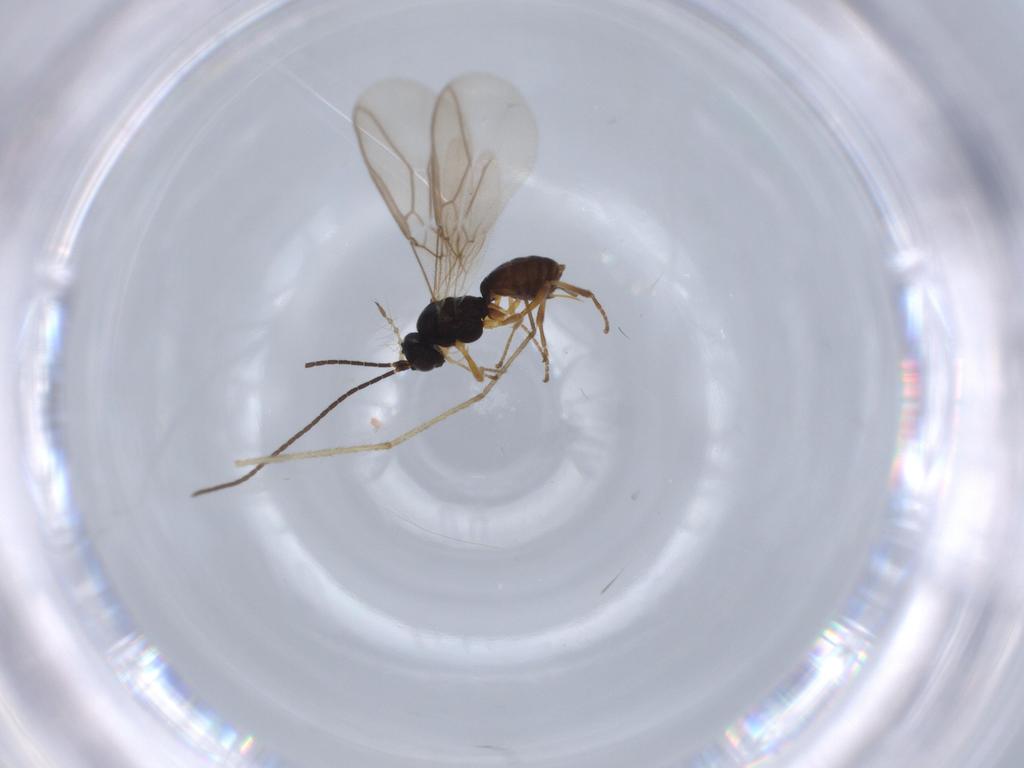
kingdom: Animalia
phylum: Arthropoda
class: Insecta
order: Hymenoptera
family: Braconidae
